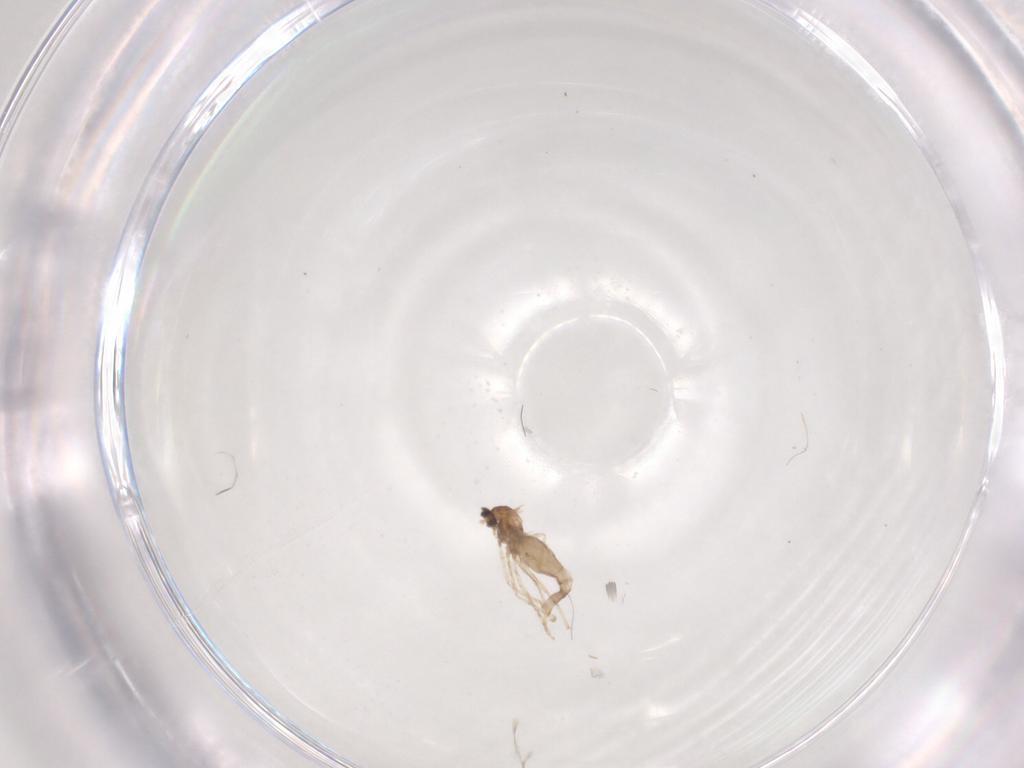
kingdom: Animalia
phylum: Arthropoda
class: Insecta
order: Diptera
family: Cecidomyiidae
